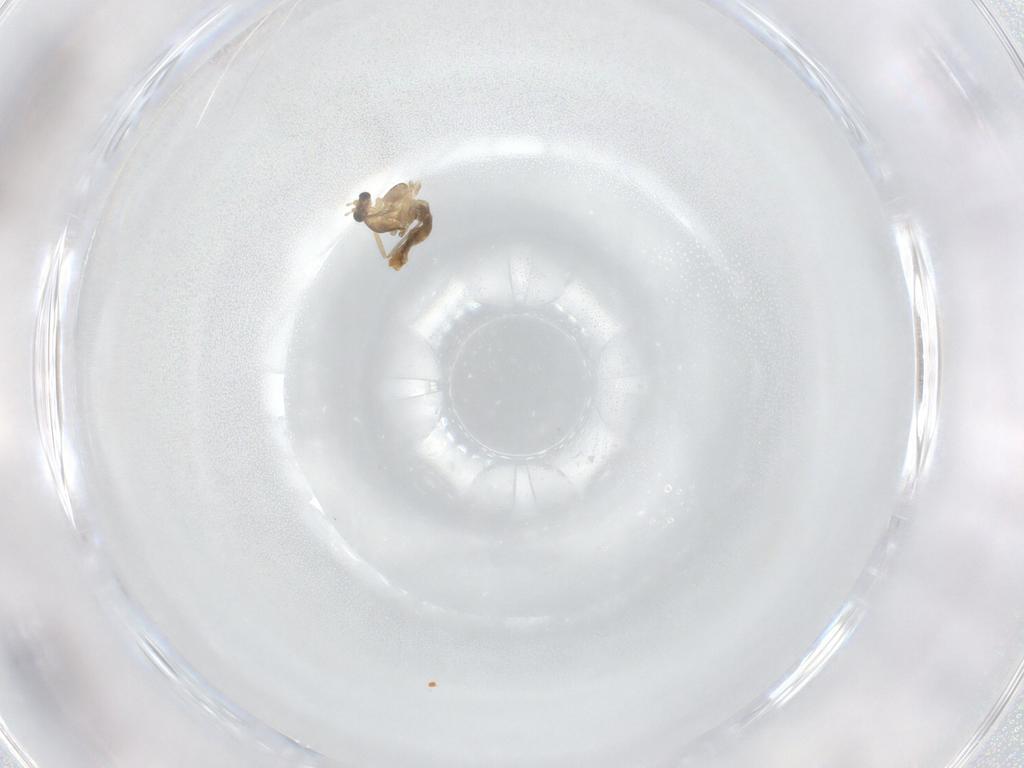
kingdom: Animalia
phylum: Arthropoda
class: Insecta
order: Diptera
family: Chironomidae
